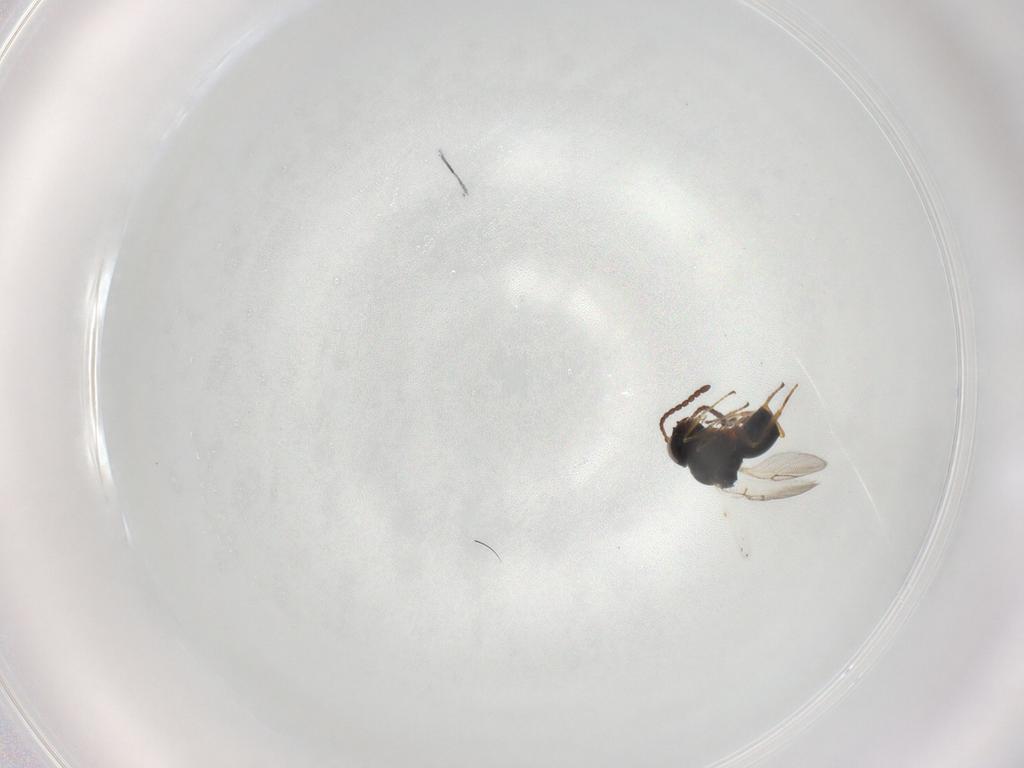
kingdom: Animalia
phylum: Arthropoda
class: Insecta
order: Hymenoptera
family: Figitidae
